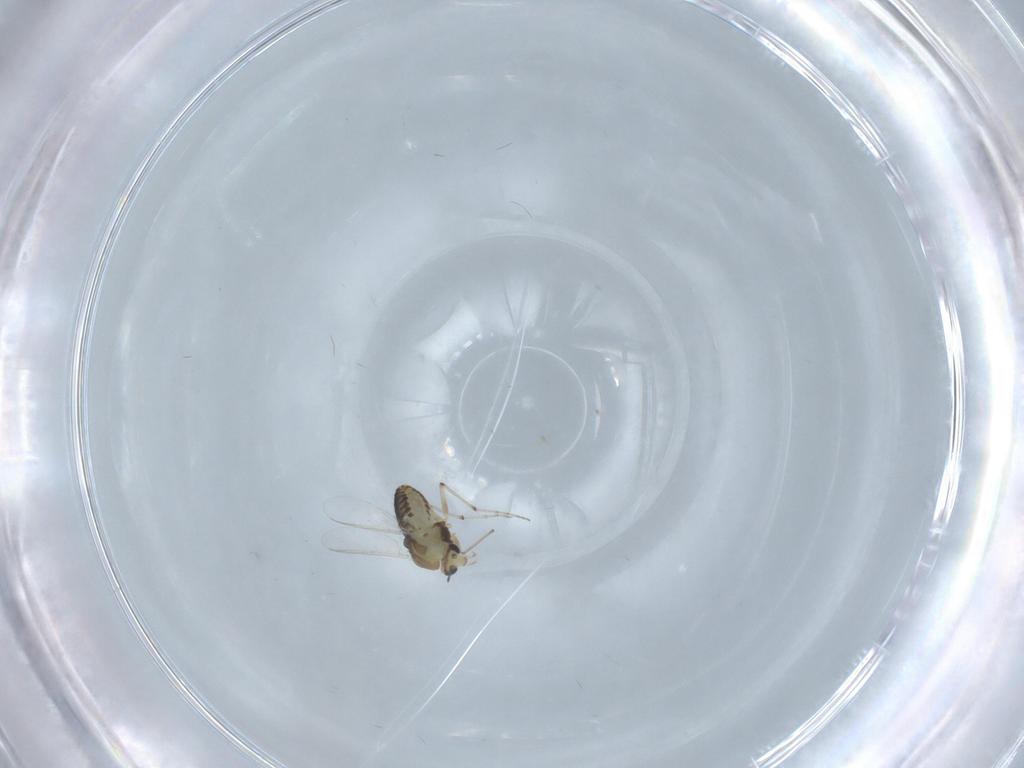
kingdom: Animalia
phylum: Arthropoda
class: Insecta
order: Diptera
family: Chironomidae
